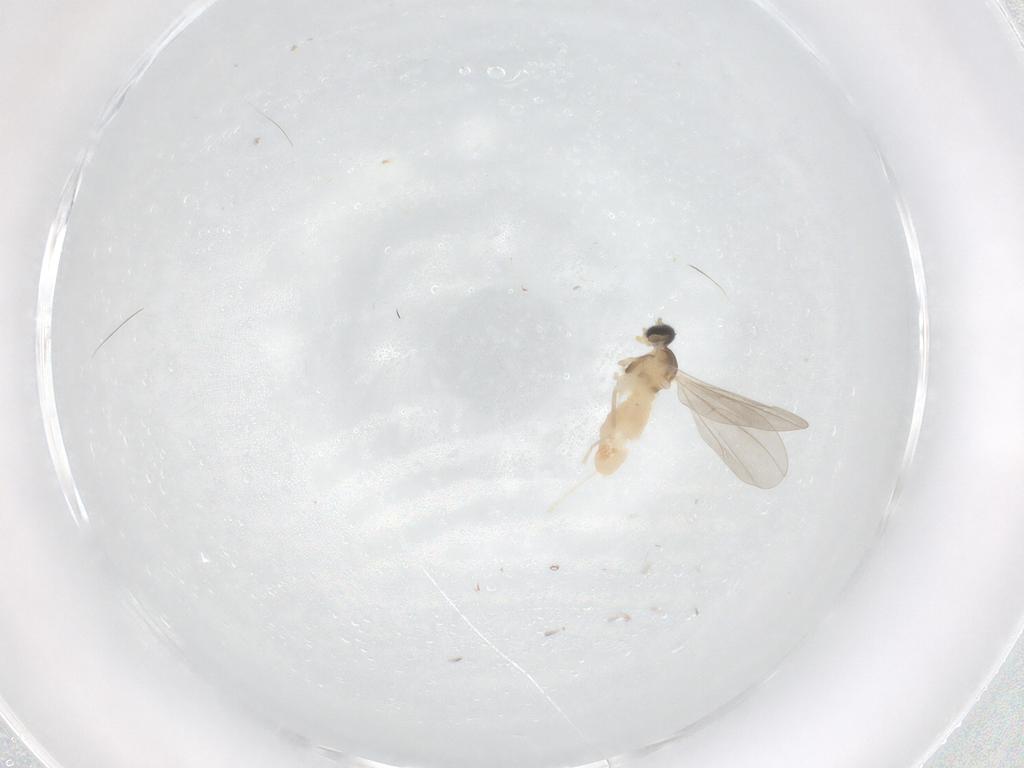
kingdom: Animalia
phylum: Arthropoda
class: Insecta
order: Diptera
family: Cecidomyiidae
